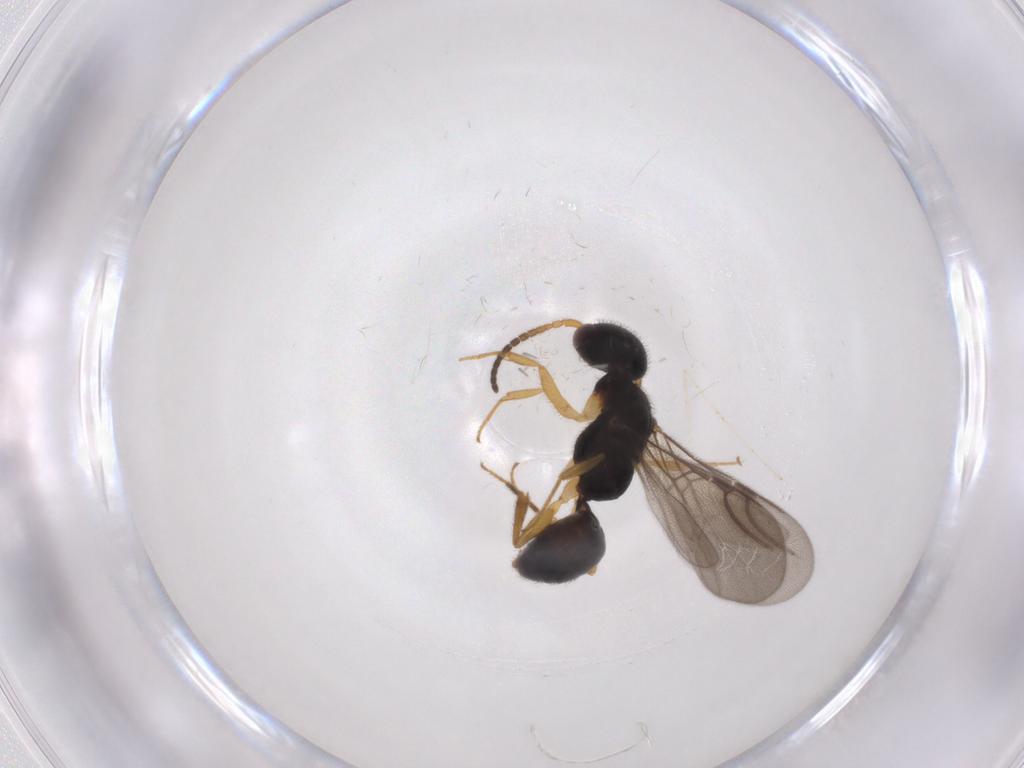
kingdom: Animalia
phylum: Arthropoda
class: Insecta
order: Hymenoptera
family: Bethylidae
